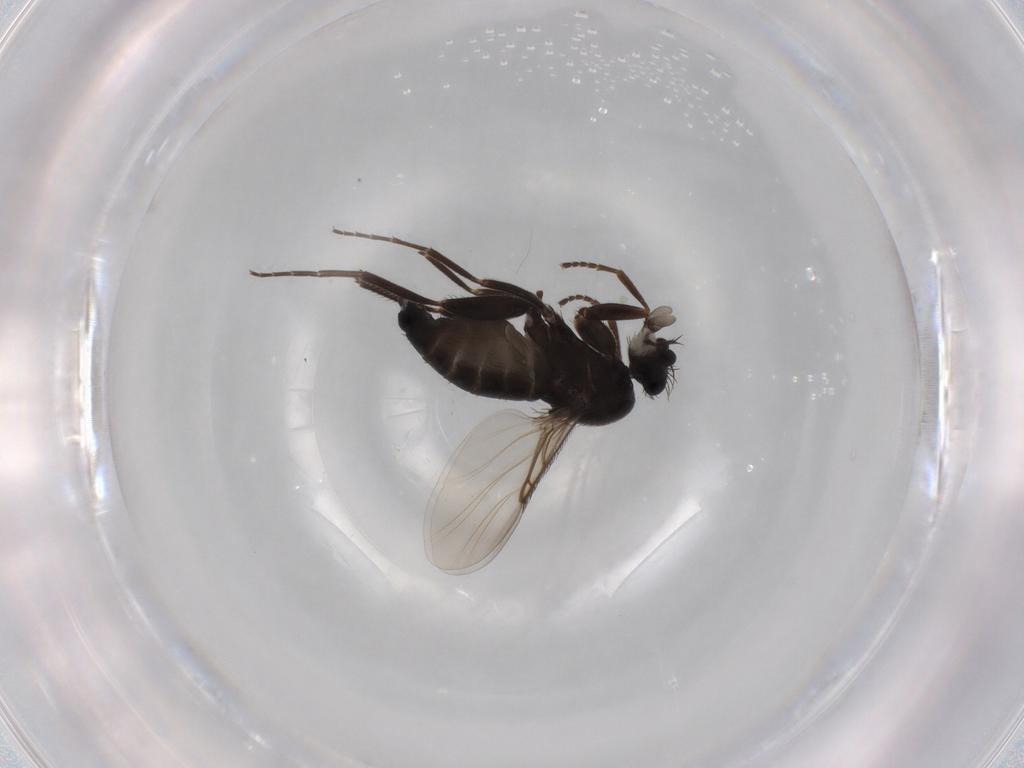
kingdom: Animalia
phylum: Arthropoda
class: Insecta
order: Diptera
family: Phoridae
